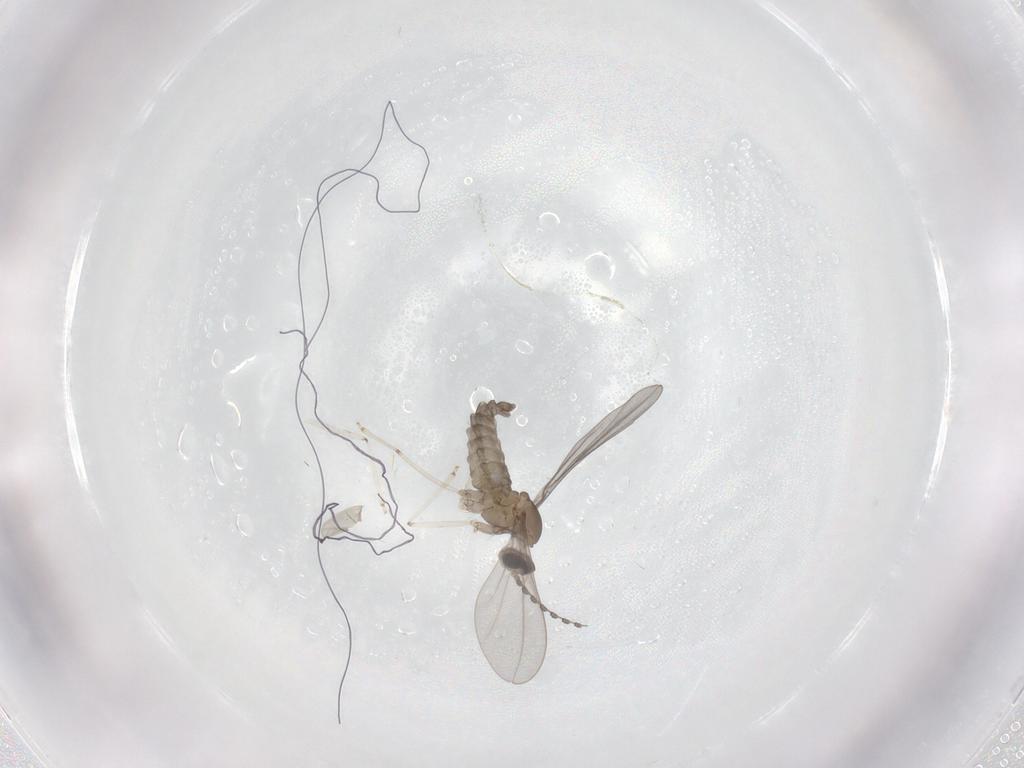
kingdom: Animalia
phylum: Arthropoda
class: Insecta
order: Diptera
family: Cecidomyiidae
